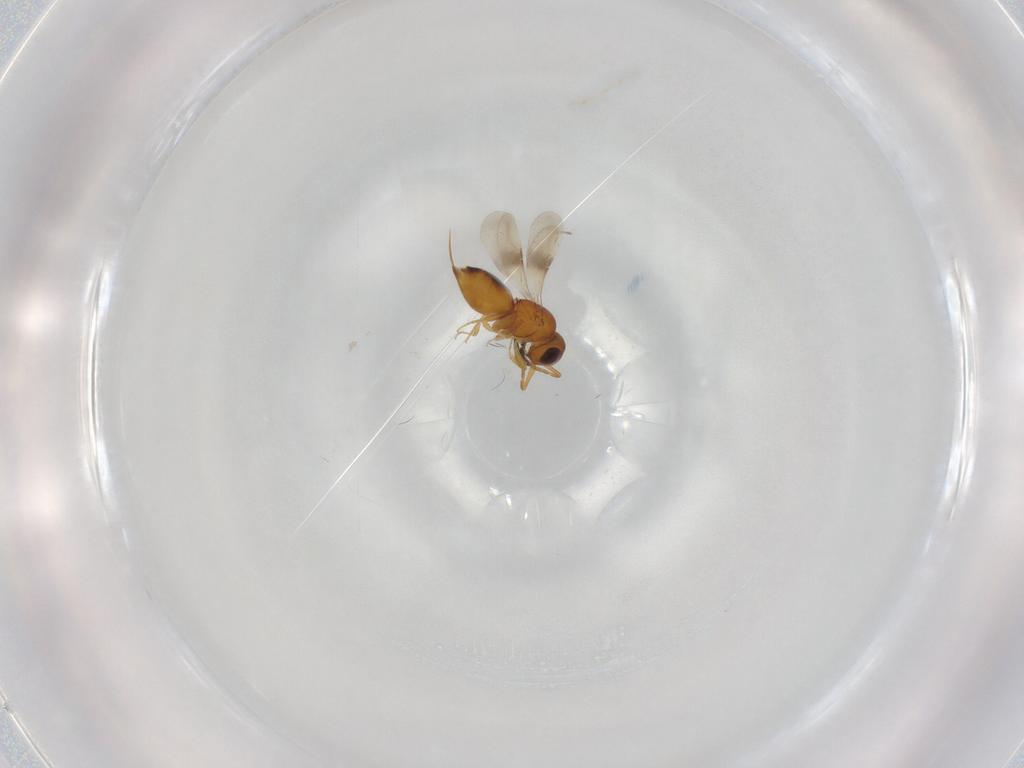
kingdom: Animalia
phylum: Arthropoda
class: Insecta
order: Hymenoptera
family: Ceraphronidae
